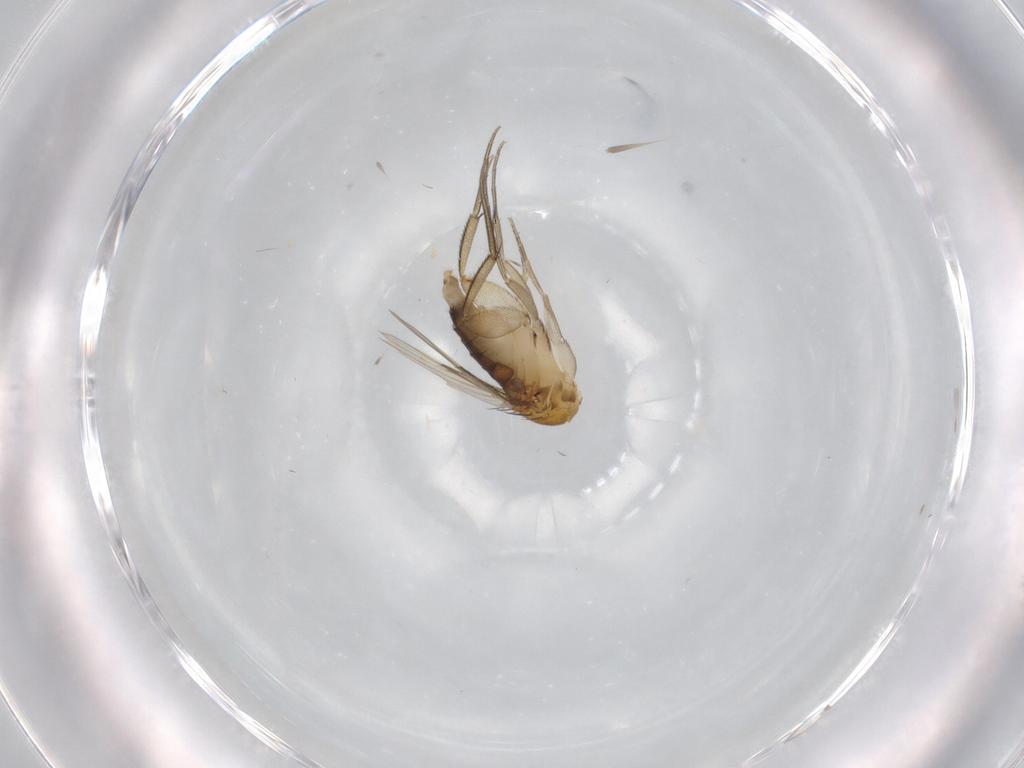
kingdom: Animalia
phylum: Arthropoda
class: Insecta
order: Diptera
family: Phoridae
